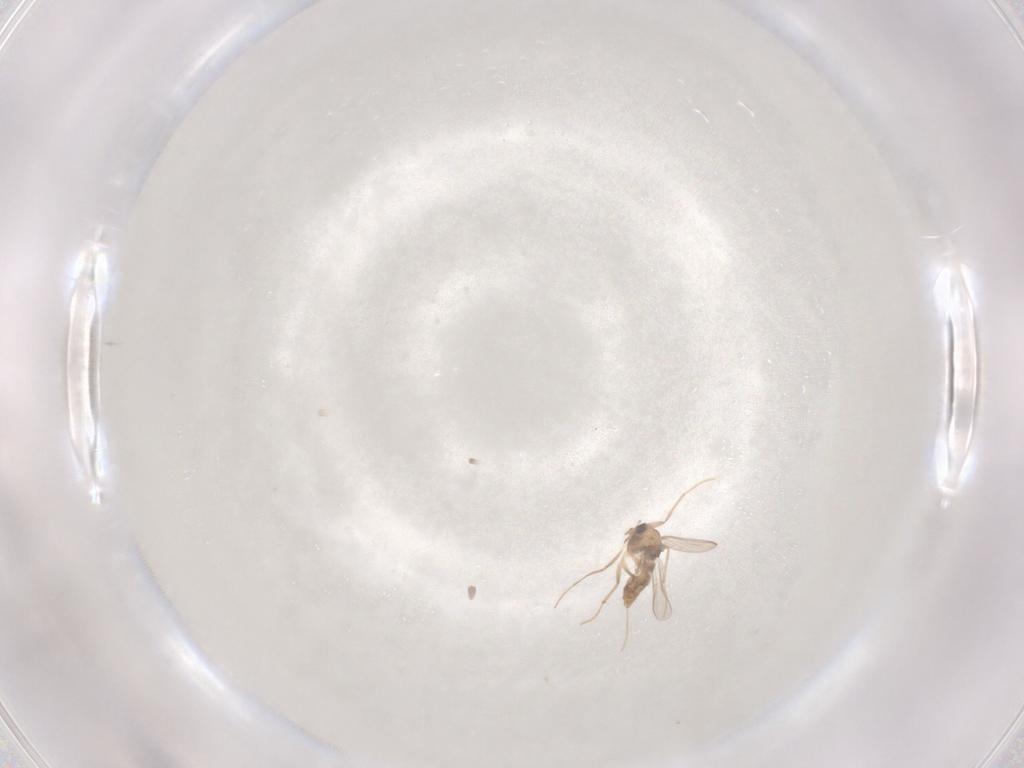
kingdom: Animalia
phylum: Arthropoda
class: Insecta
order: Diptera
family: Chironomidae
